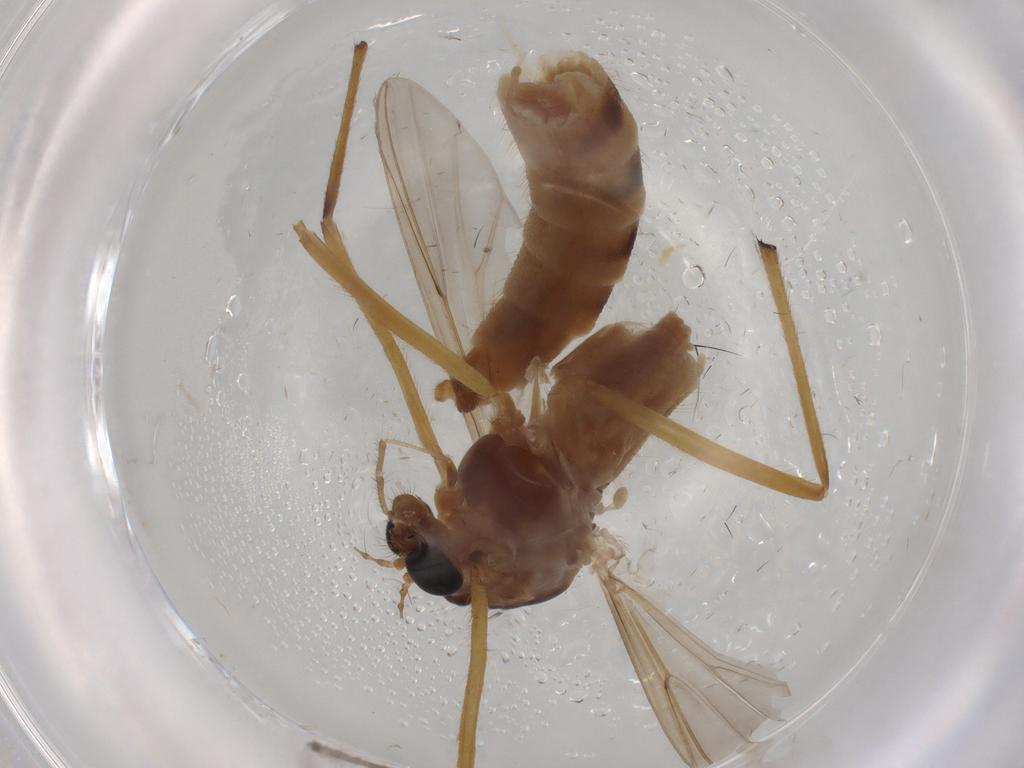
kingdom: Animalia
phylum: Arthropoda
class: Insecta
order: Diptera
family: Chironomidae
